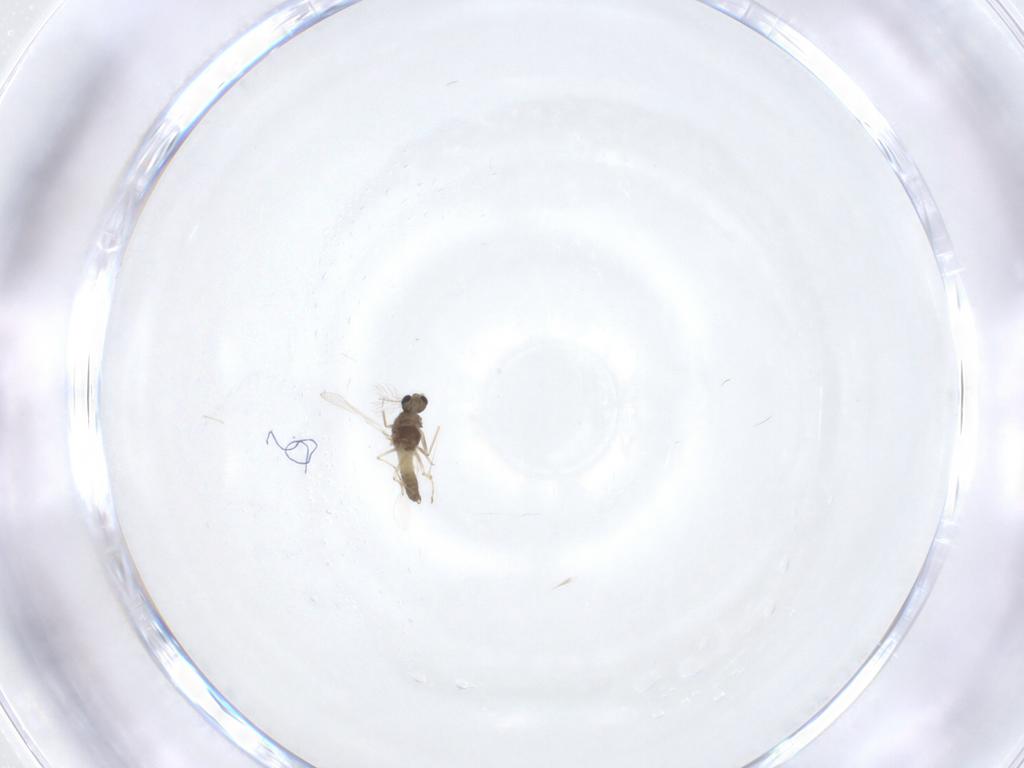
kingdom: Animalia
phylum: Arthropoda
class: Insecta
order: Diptera
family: Chironomidae
